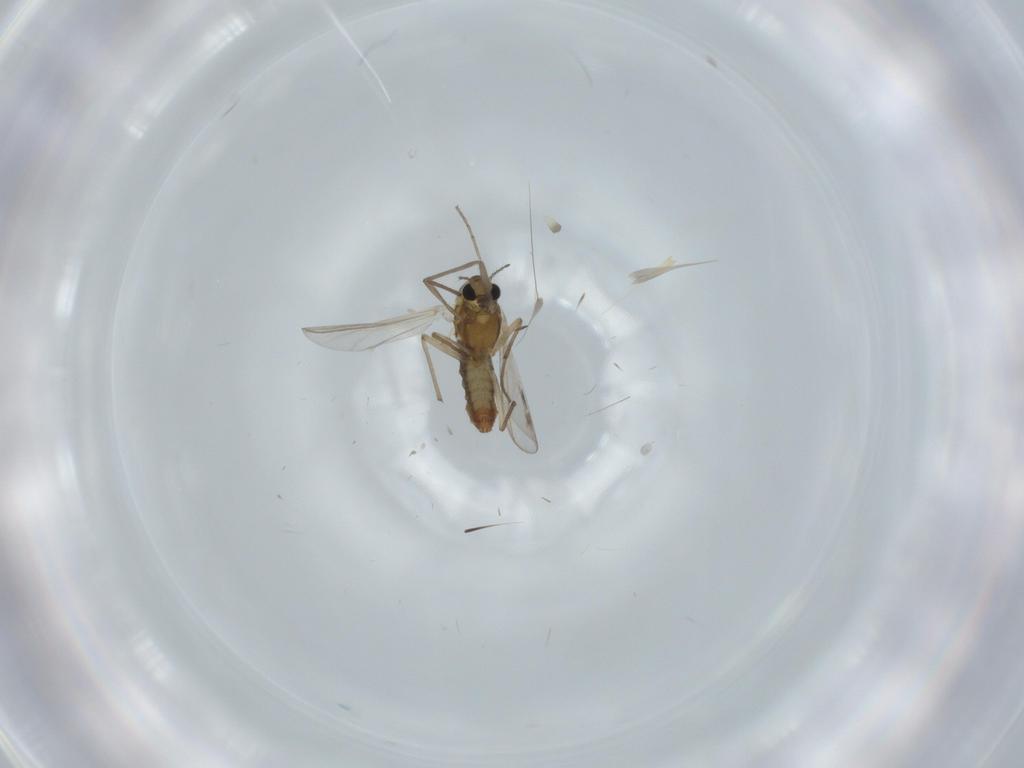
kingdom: Animalia
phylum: Arthropoda
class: Insecta
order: Diptera
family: Chironomidae
